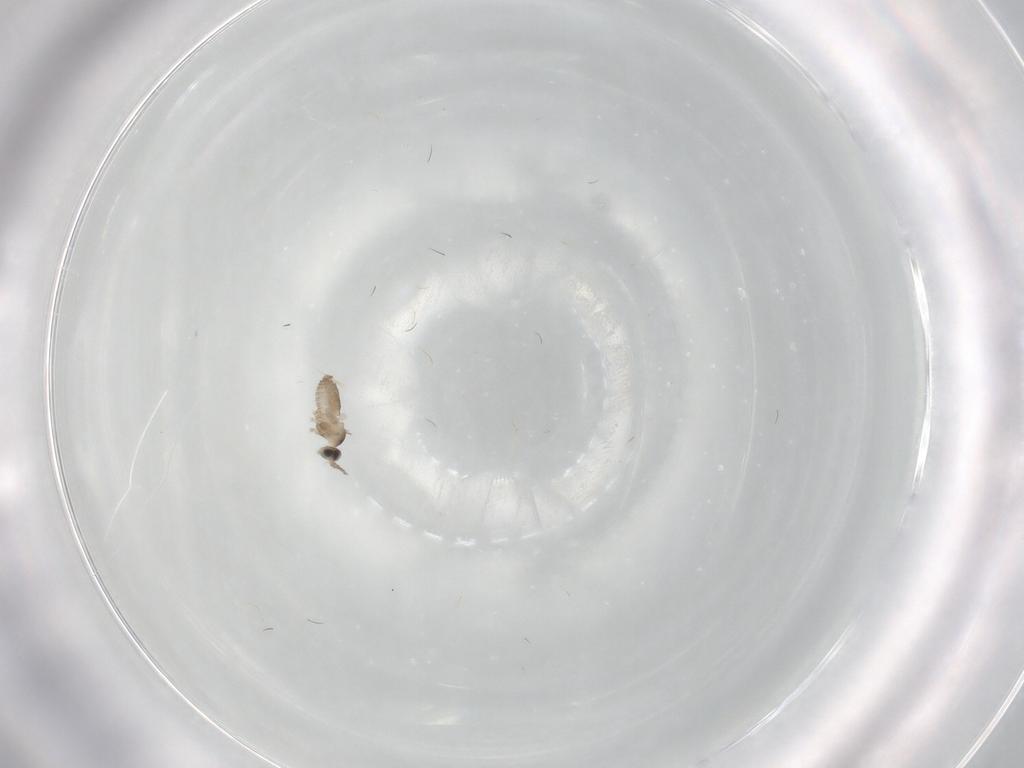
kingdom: Animalia
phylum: Arthropoda
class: Insecta
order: Diptera
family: Cecidomyiidae
